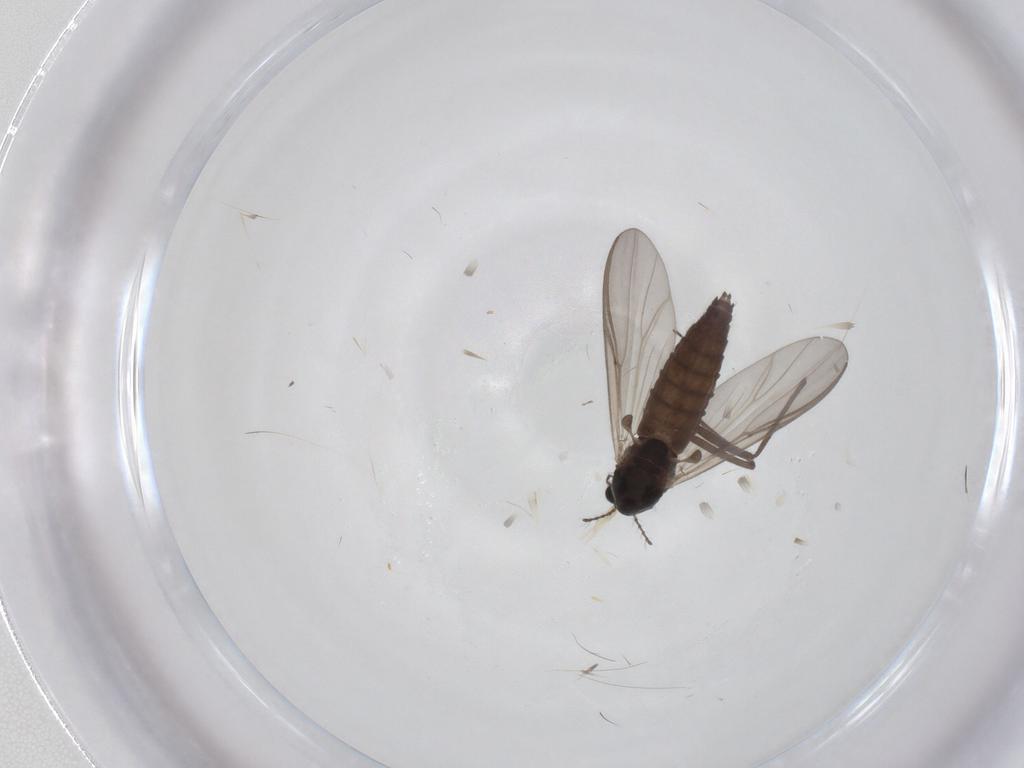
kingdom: Animalia
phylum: Arthropoda
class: Insecta
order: Diptera
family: Chironomidae
